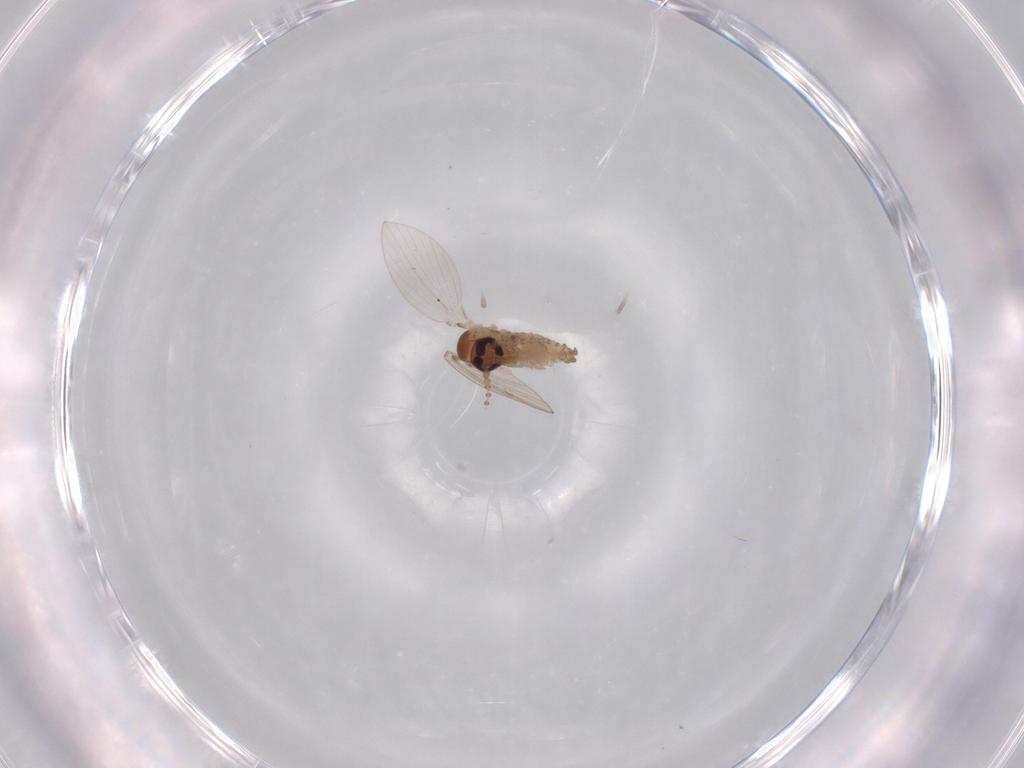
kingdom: Animalia
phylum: Arthropoda
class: Insecta
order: Diptera
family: Psychodidae
